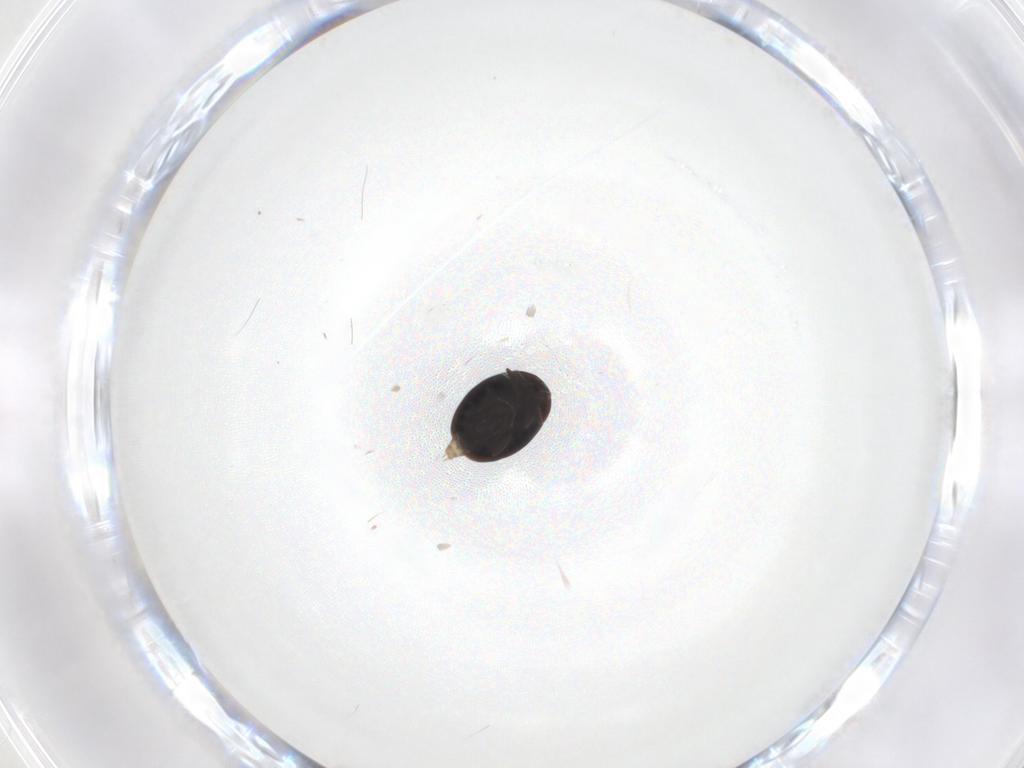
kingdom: Animalia
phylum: Arthropoda
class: Insecta
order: Coleoptera
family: Corylophidae
